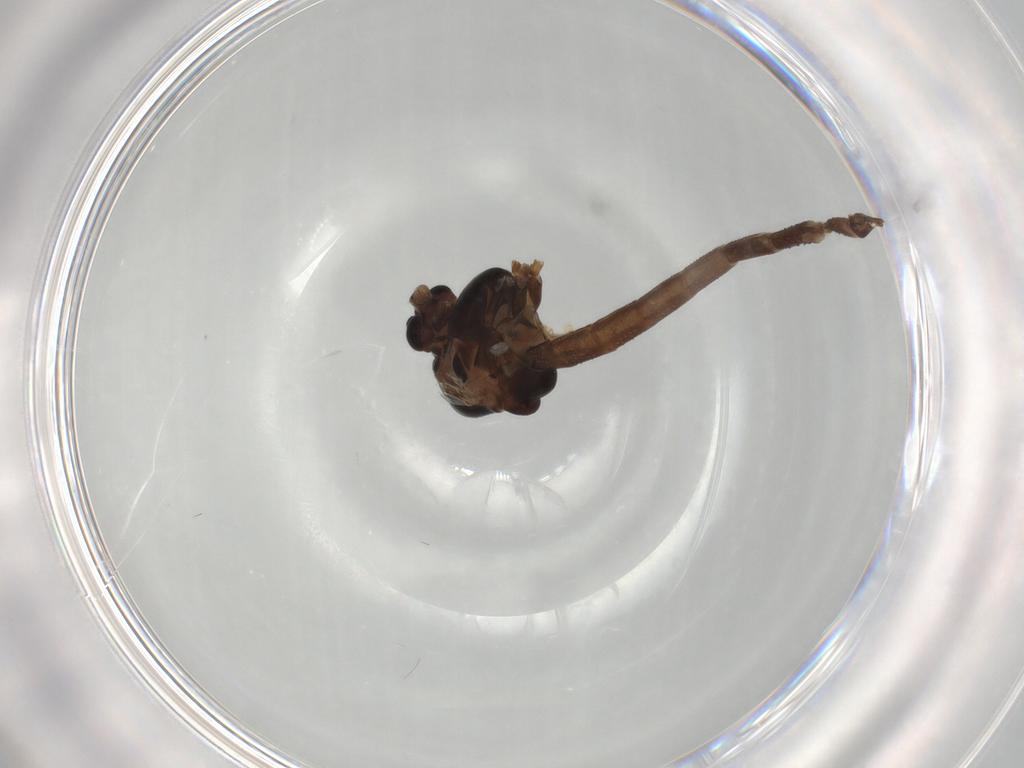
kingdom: Animalia
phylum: Arthropoda
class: Insecta
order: Diptera
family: Chironomidae
